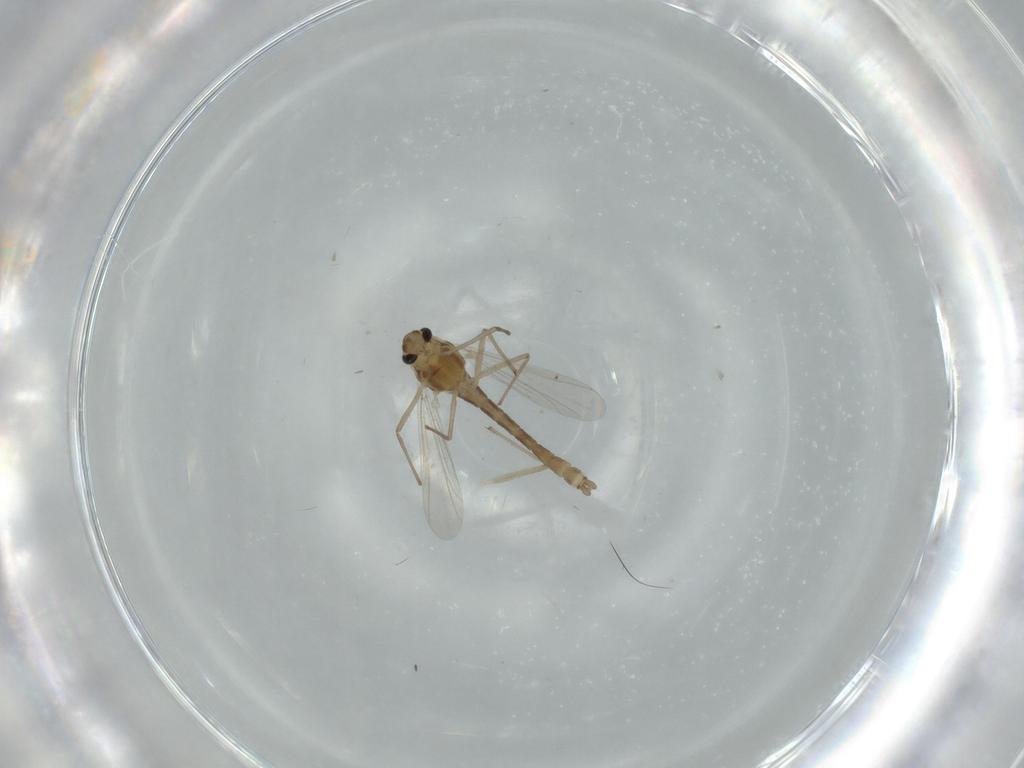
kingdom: Animalia
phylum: Arthropoda
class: Insecta
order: Diptera
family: Chironomidae
